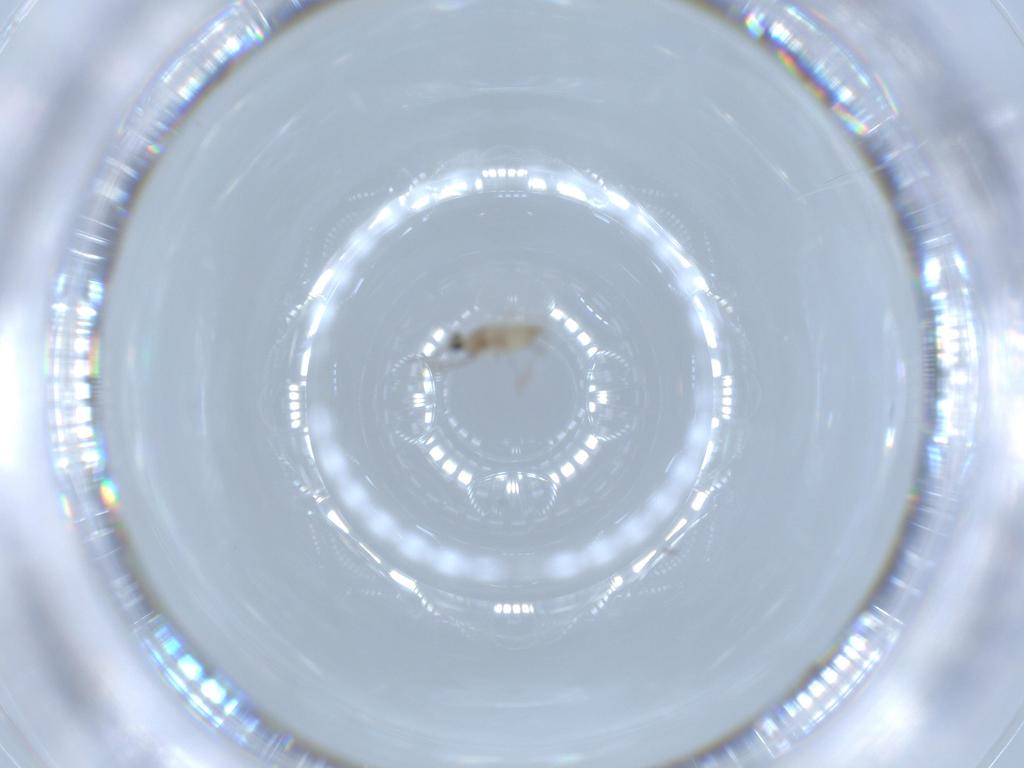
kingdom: Animalia
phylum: Arthropoda
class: Insecta
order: Diptera
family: Cecidomyiidae
